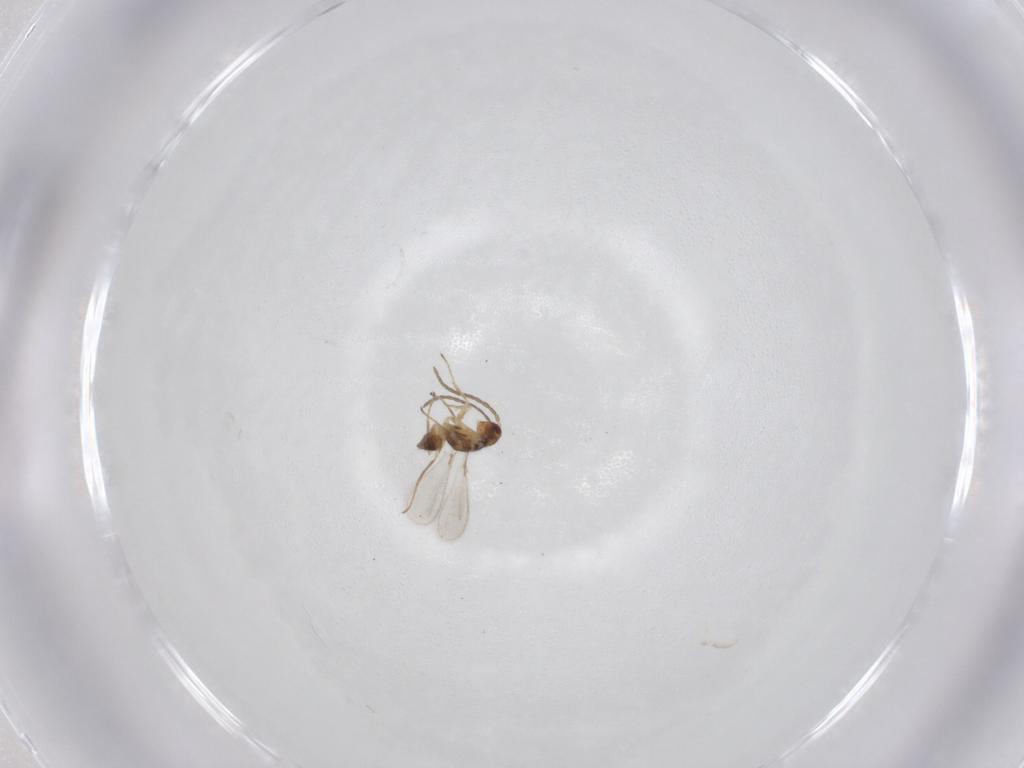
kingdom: Animalia
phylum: Arthropoda
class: Insecta
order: Hymenoptera
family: Mymaridae
